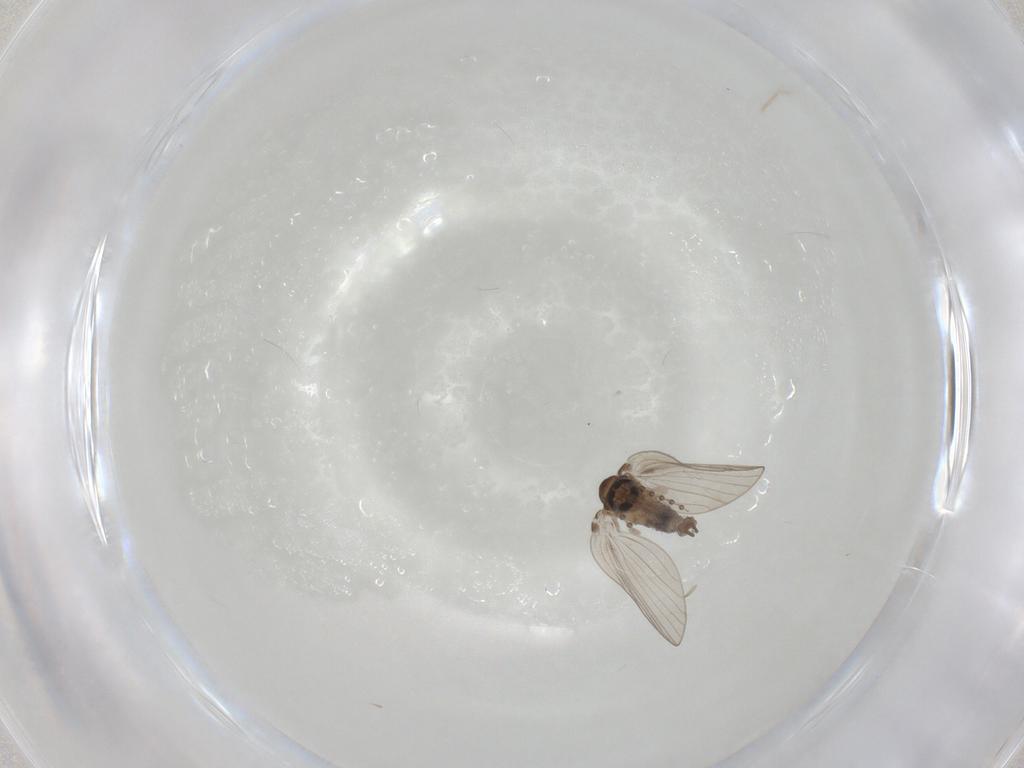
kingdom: Animalia
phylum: Arthropoda
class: Insecta
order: Diptera
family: Psychodidae
